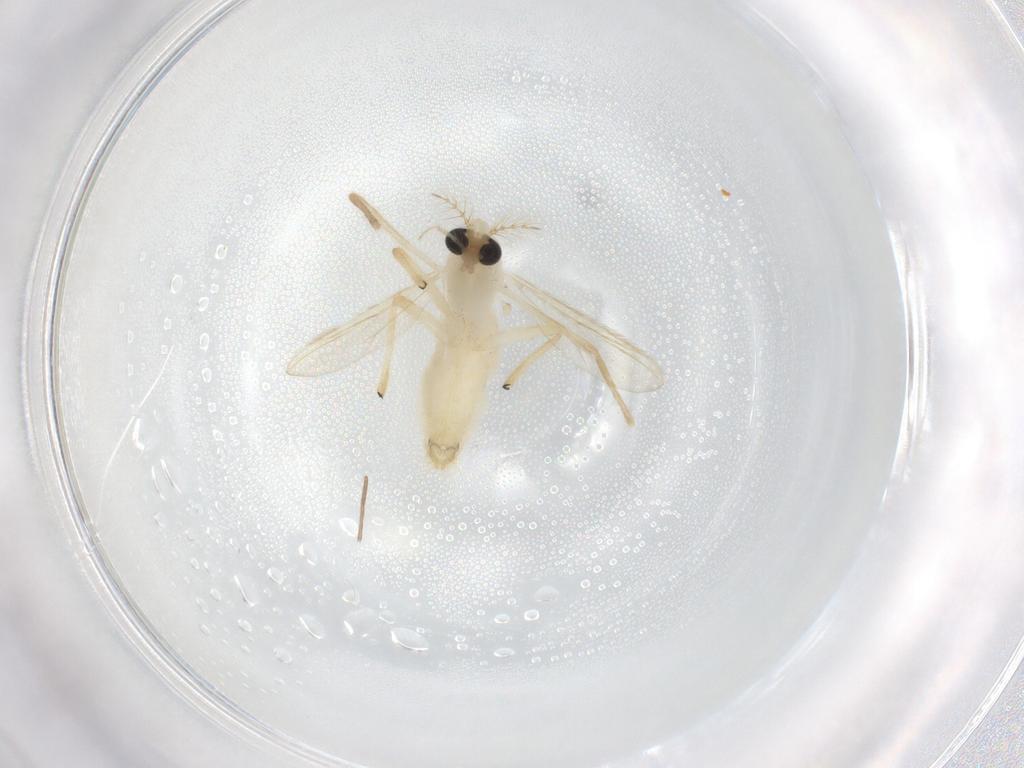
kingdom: Animalia
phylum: Arthropoda
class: Insecta
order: Diptera
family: Chironomidae
